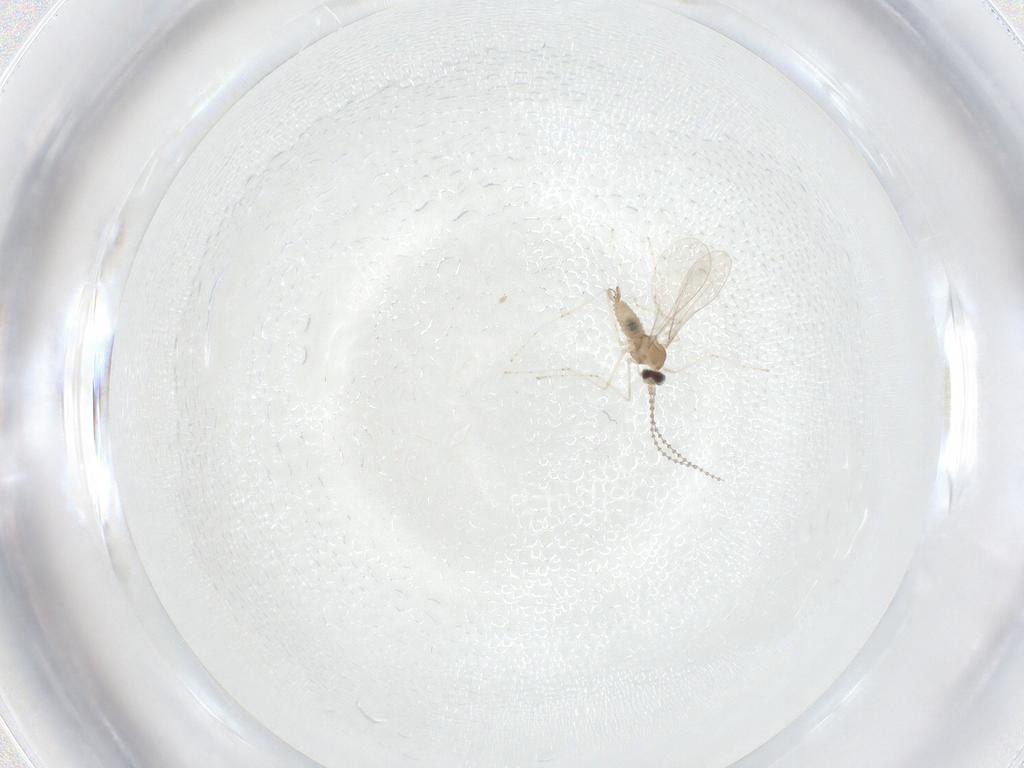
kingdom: Animalia
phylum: Arthropoda
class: Insecta
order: Diptera
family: Cecidomyiidae
